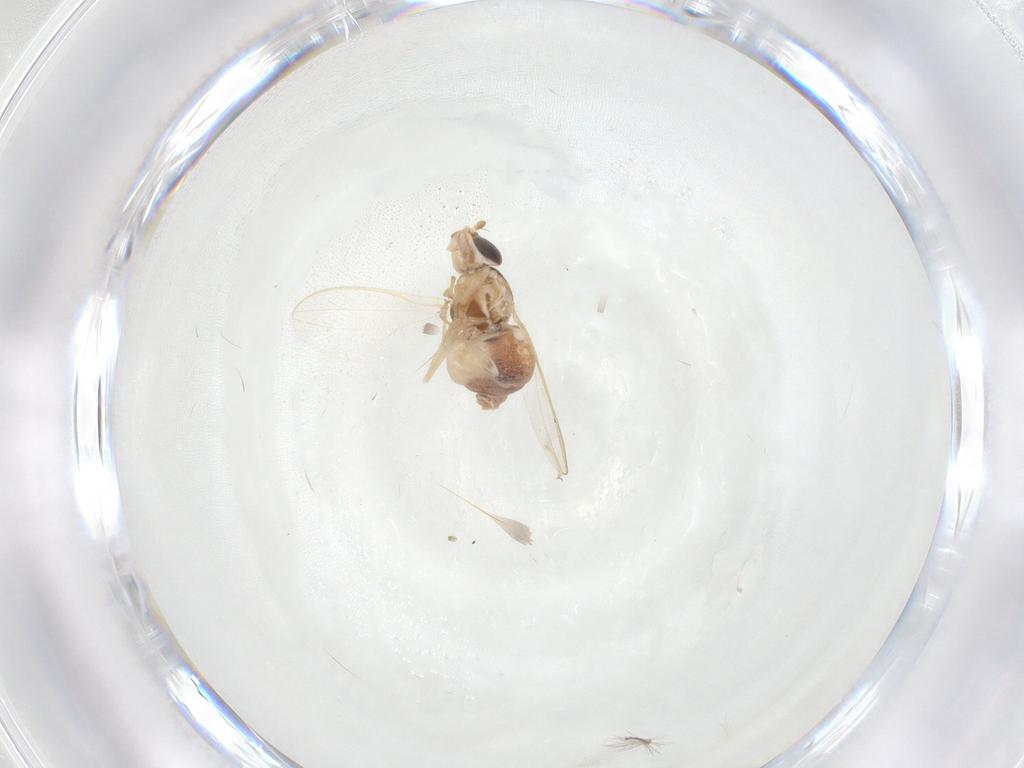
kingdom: Animalia
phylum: Arthropoda
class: Insecta
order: Diptera
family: Chloropidae
